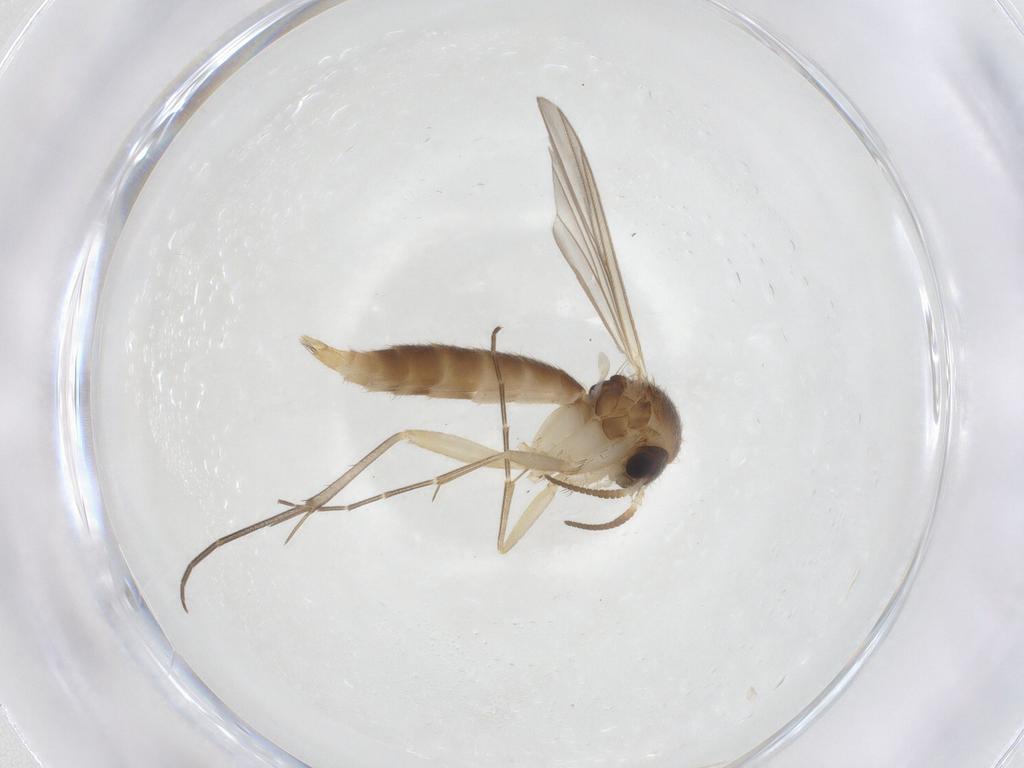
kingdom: Animalia
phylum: Arthropoda
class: Insecta
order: Diptera
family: Mycetophilidae
